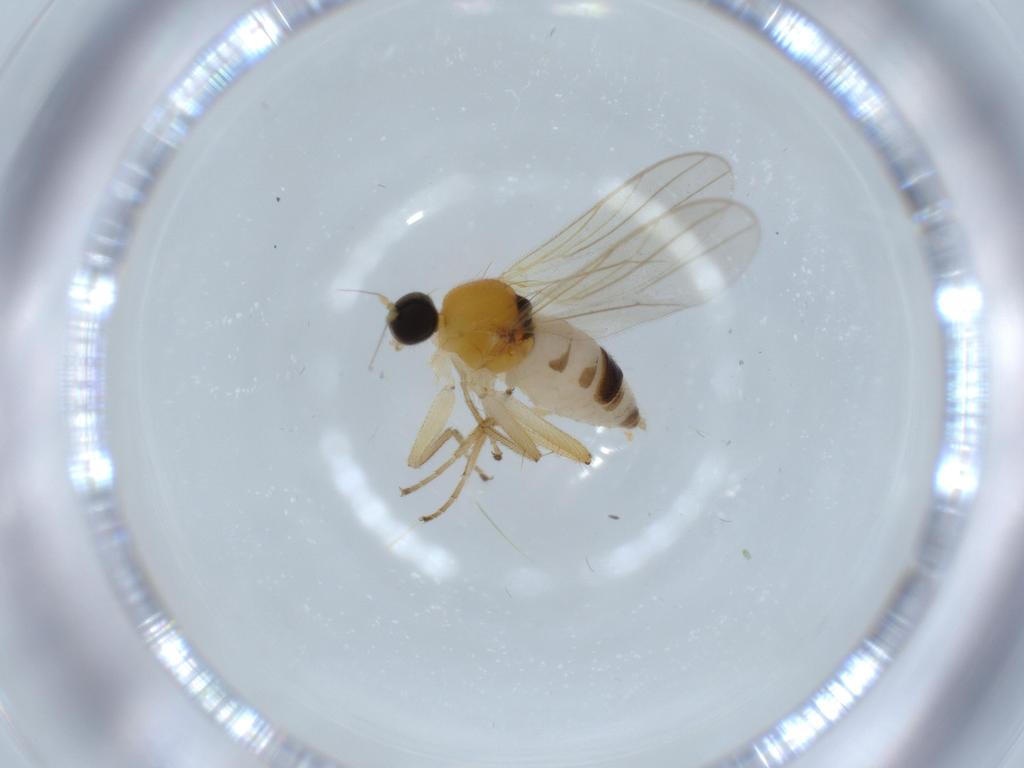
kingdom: Animalia
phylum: Arthropoda
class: Insecta
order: Diptera
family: Hybotidae
